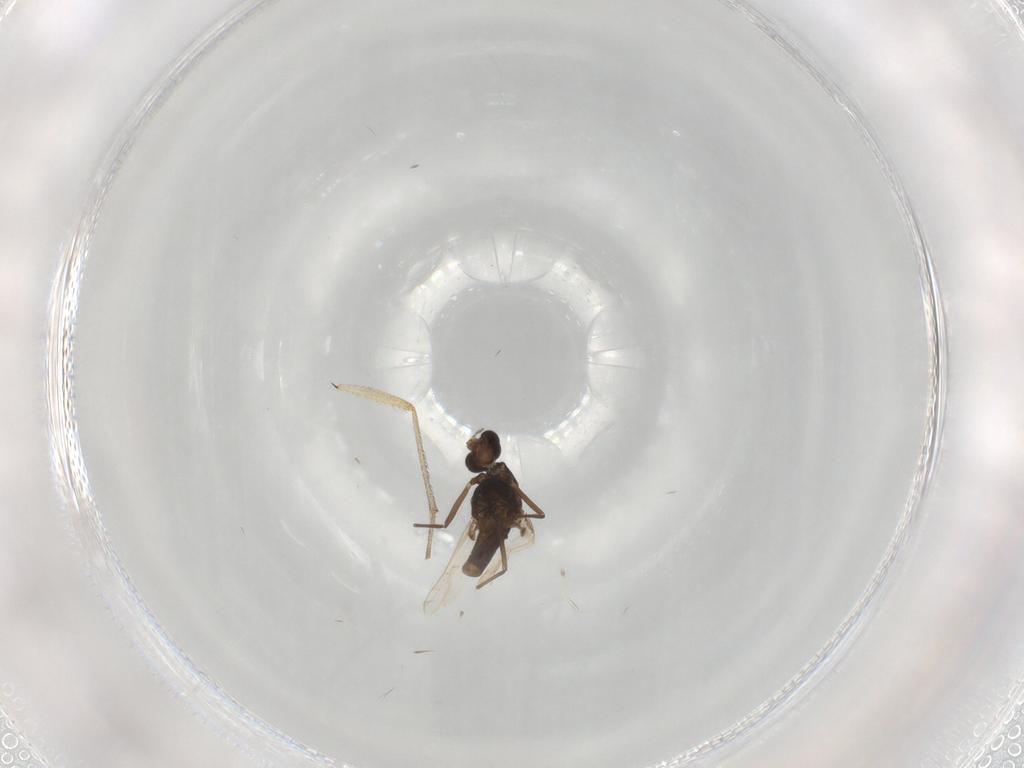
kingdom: Animalia
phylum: Arthropoda
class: Insecta
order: Diptera
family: Chironomidae
